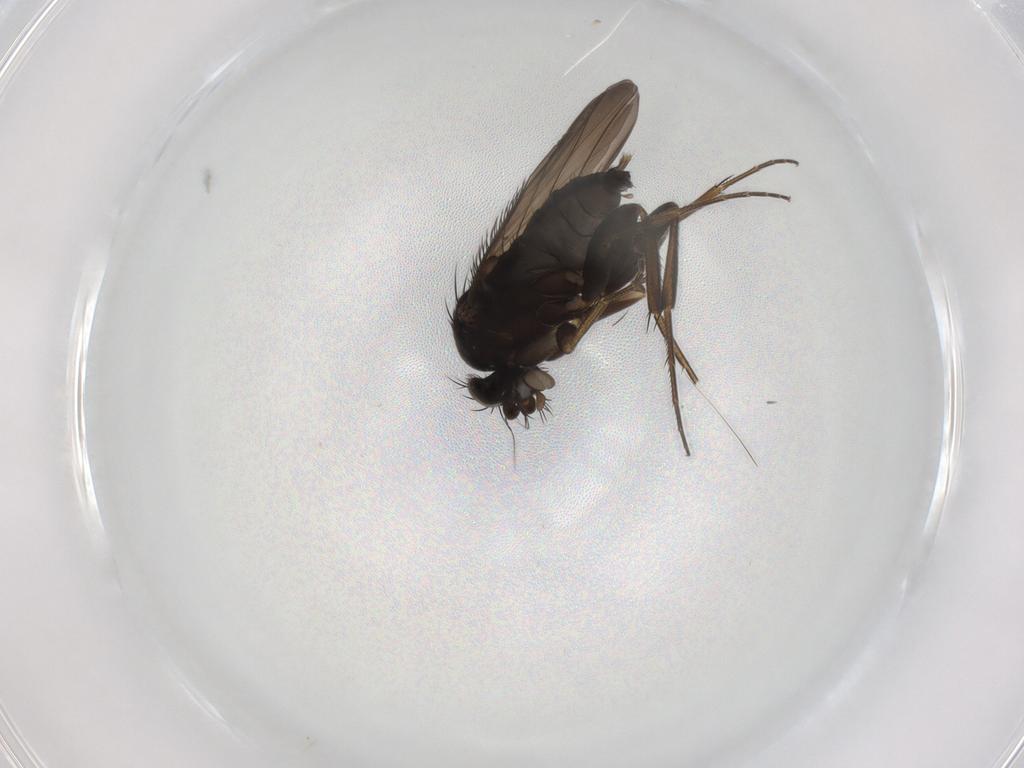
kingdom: Animalia
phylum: Arthropoda
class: Insecta
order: Diptera
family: Phoridae
